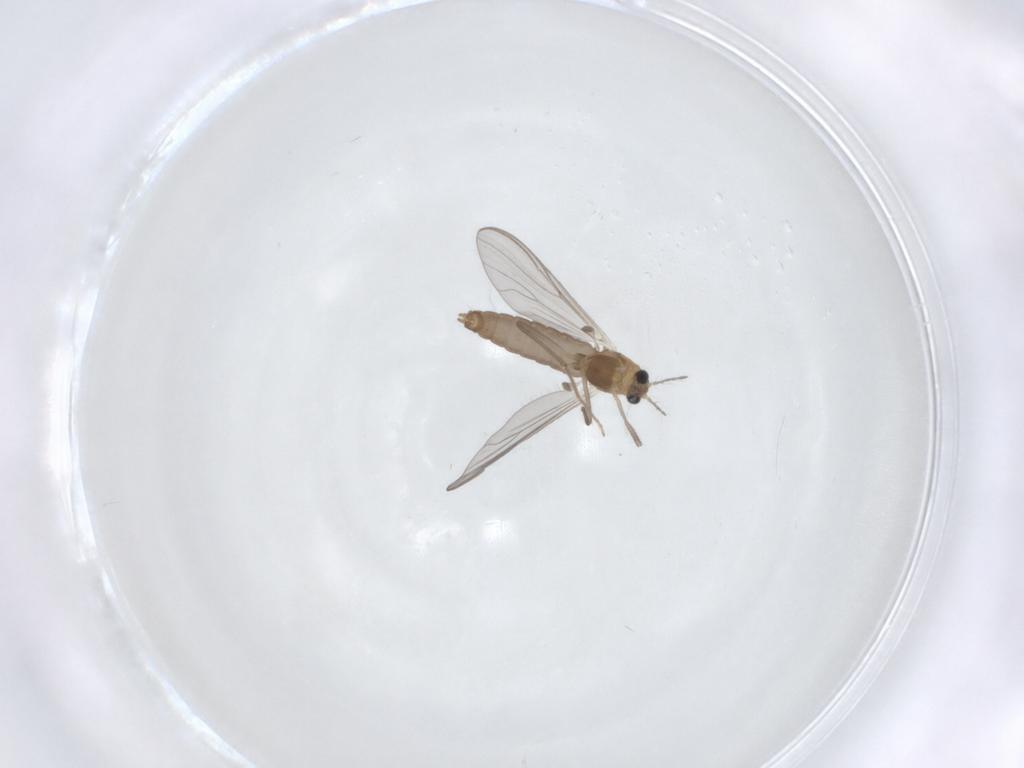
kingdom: Animalia
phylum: Arthropoda
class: Insecta
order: Diptera
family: Chironomidae
